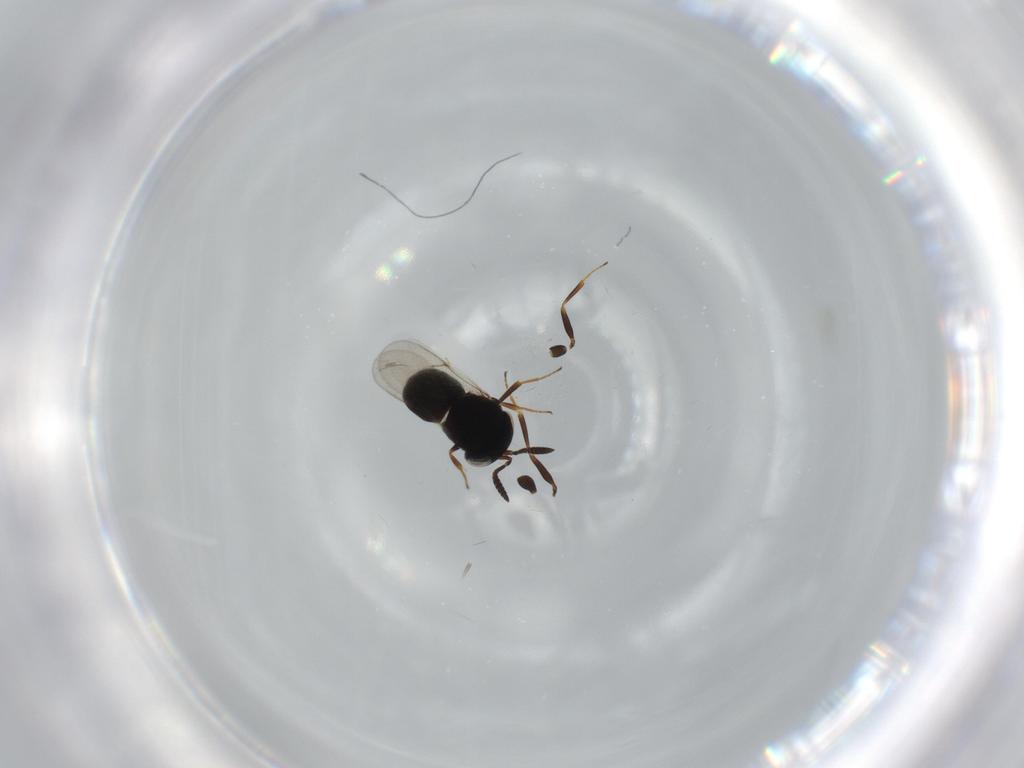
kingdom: Animalia
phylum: Arthropoda
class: Insecta
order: Hymenoptera
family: Scelionidae
